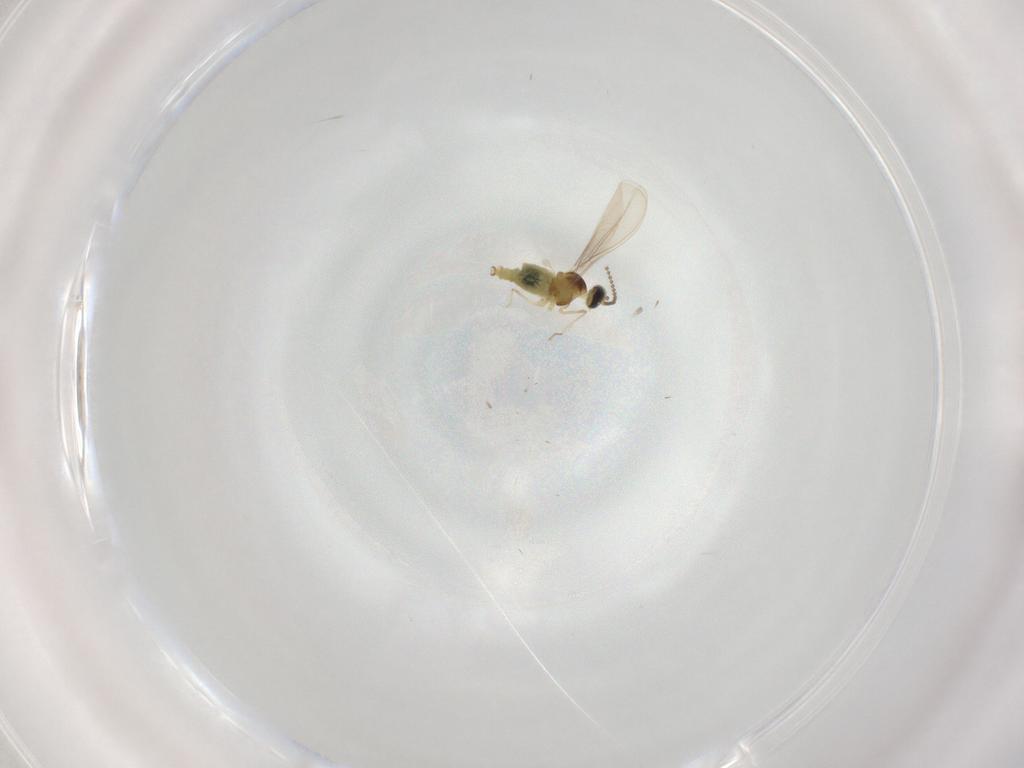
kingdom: Animalia
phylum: Arthropoda
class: Insecta
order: Diptera
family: Cecidomyiidae
